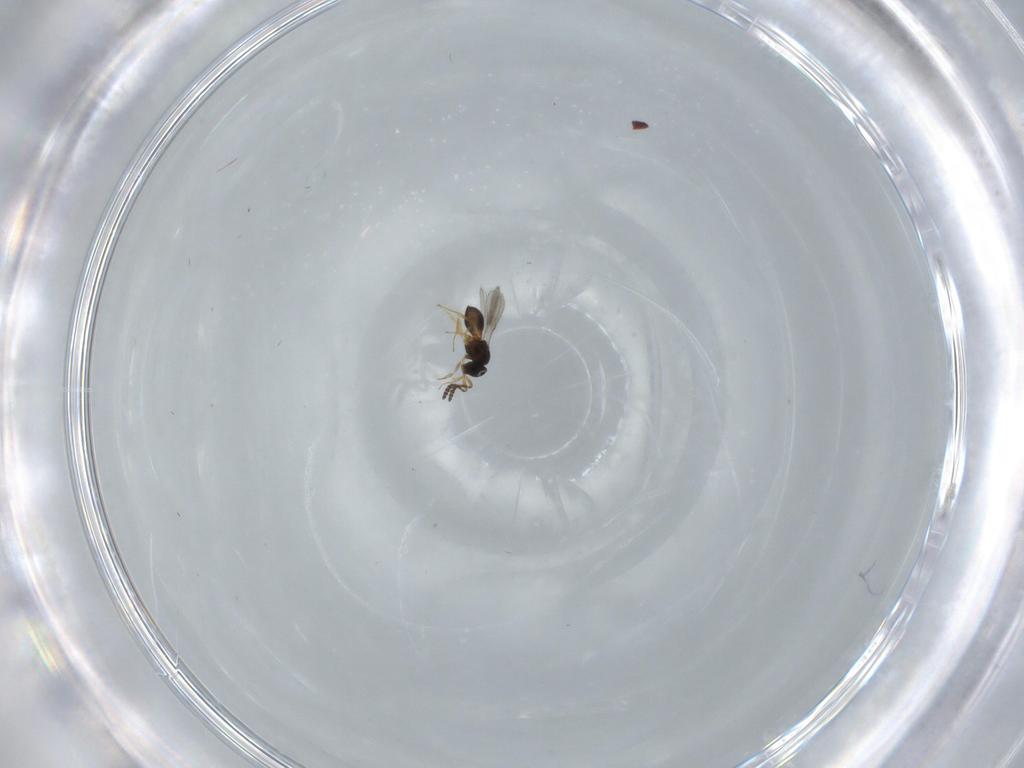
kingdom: Animalia
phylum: Arthropoda
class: Insecta
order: Hymenoptera
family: Scelionidae
